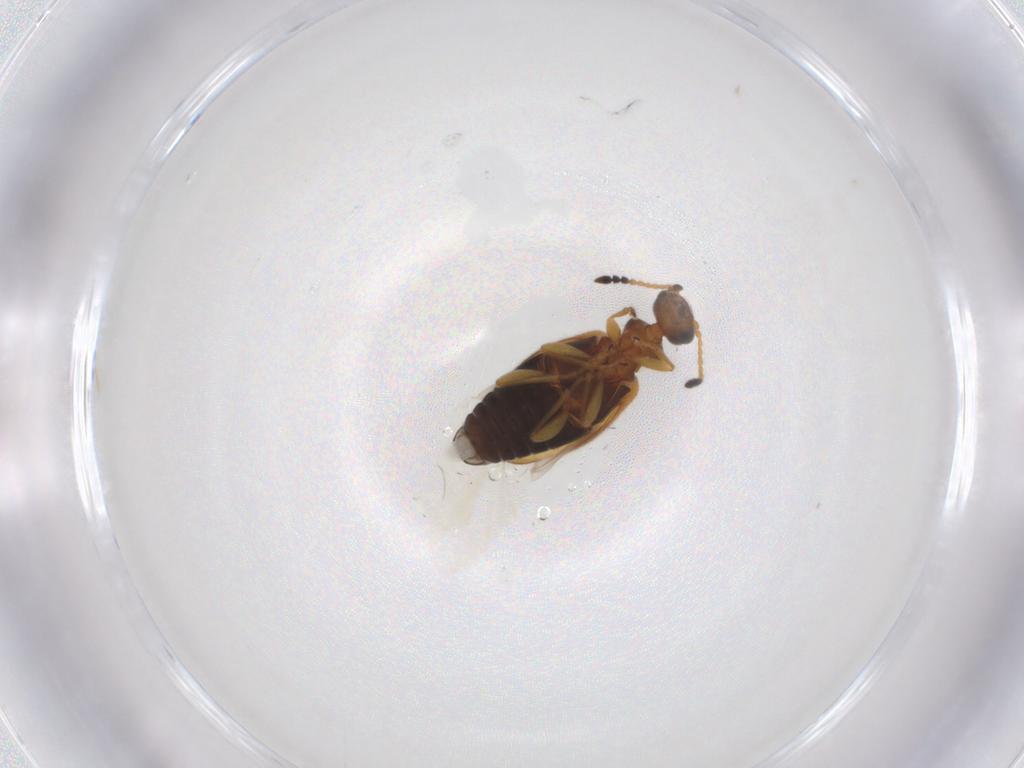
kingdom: Animalia
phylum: Arthropoda
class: Insecta
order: Coleoptera
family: Anthicidae
